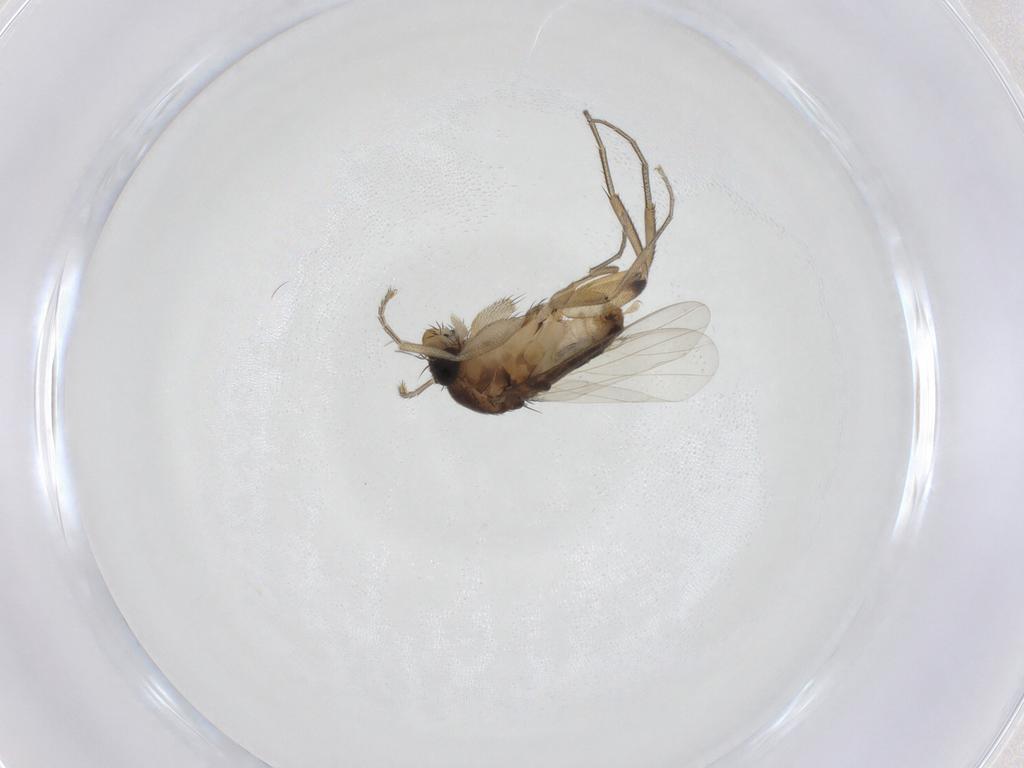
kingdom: Animalia
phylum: Arthropoda
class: Insecta
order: Diptera
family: Phoridae
